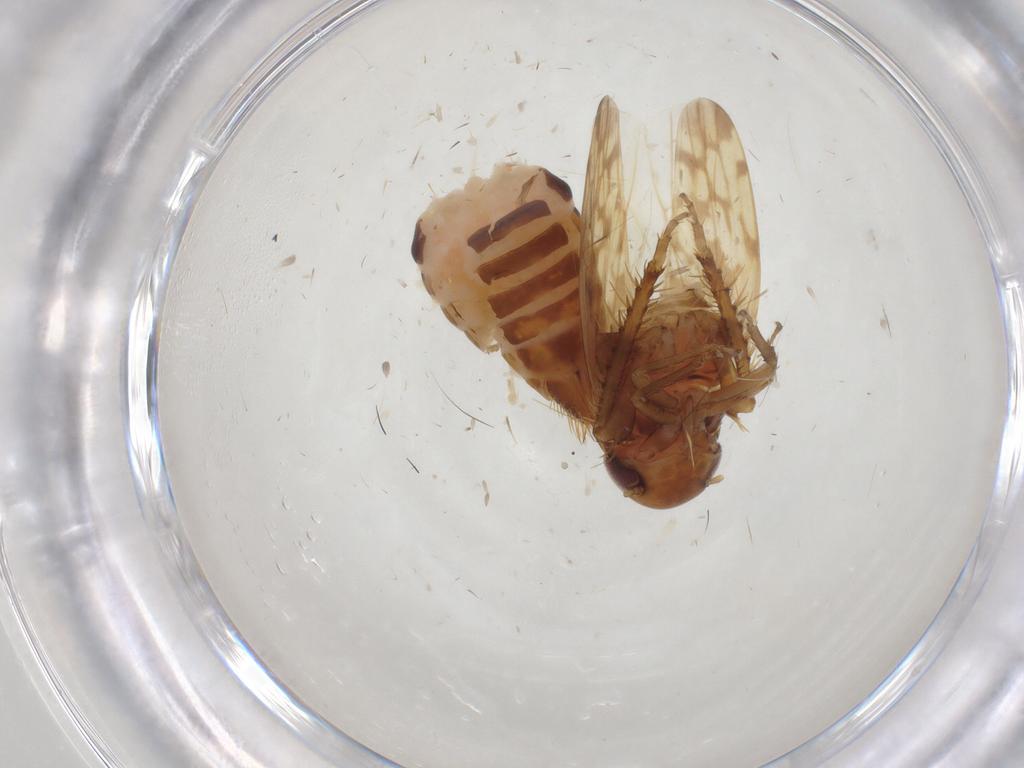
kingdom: Animalia
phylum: Arthropoda
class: Insecta
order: Hemiptera
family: Cicadellidae
